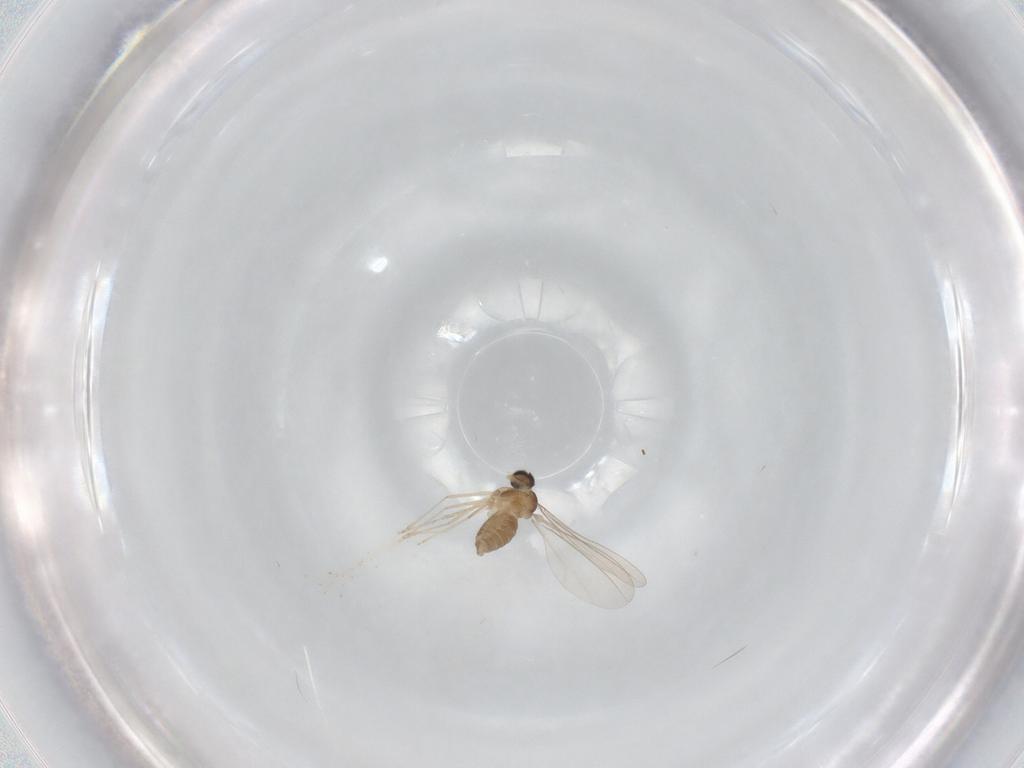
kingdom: Animalia
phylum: Arthropoda
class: Insecta
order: Diptera
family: Cecidomyiidae
